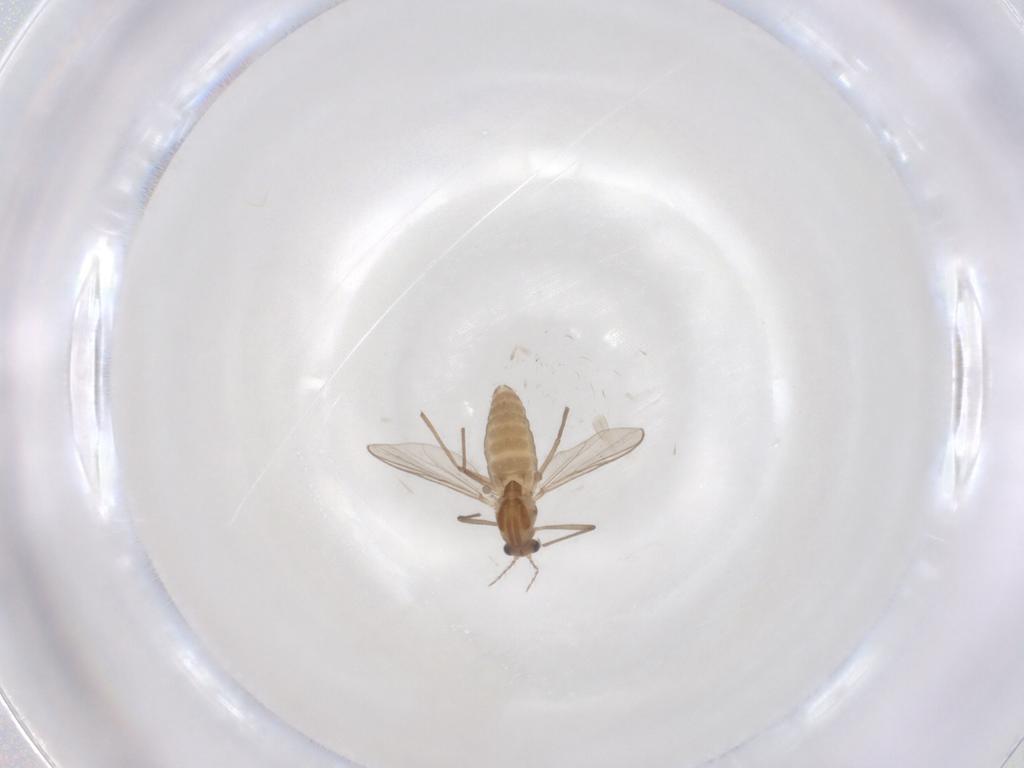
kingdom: Animalia
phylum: Arthropoda
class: Insecta
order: Diptera
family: Chironomidae
